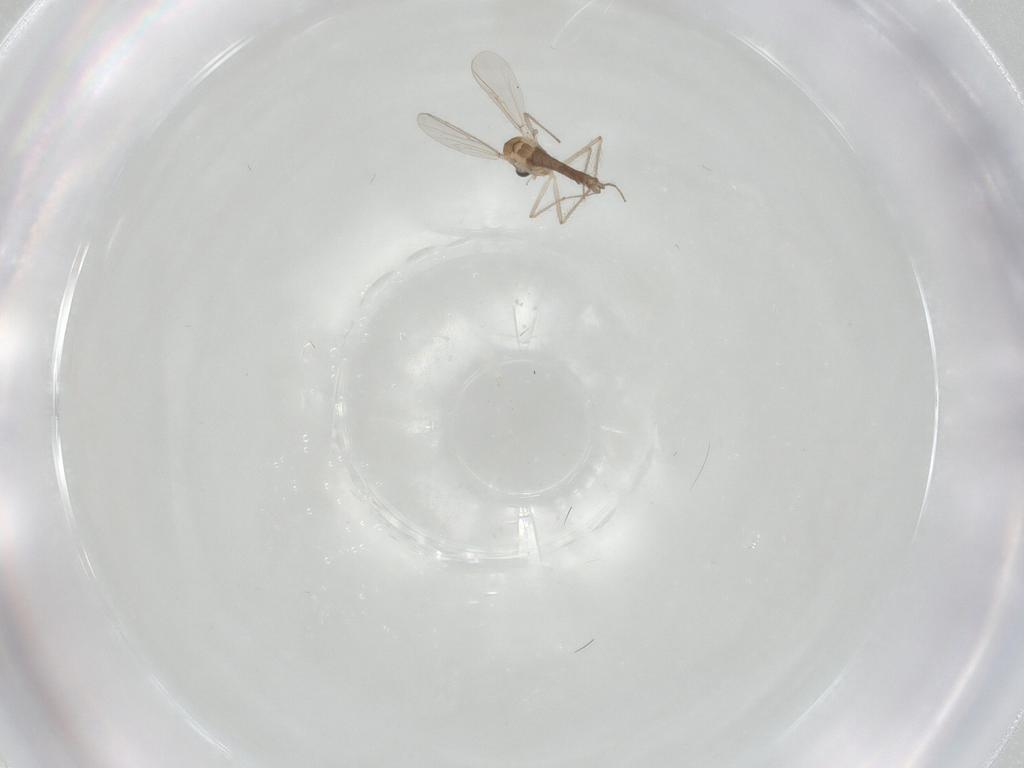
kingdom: Animalia
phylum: Arthropoda
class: Insecta
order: Diptera
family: Chironomidae
